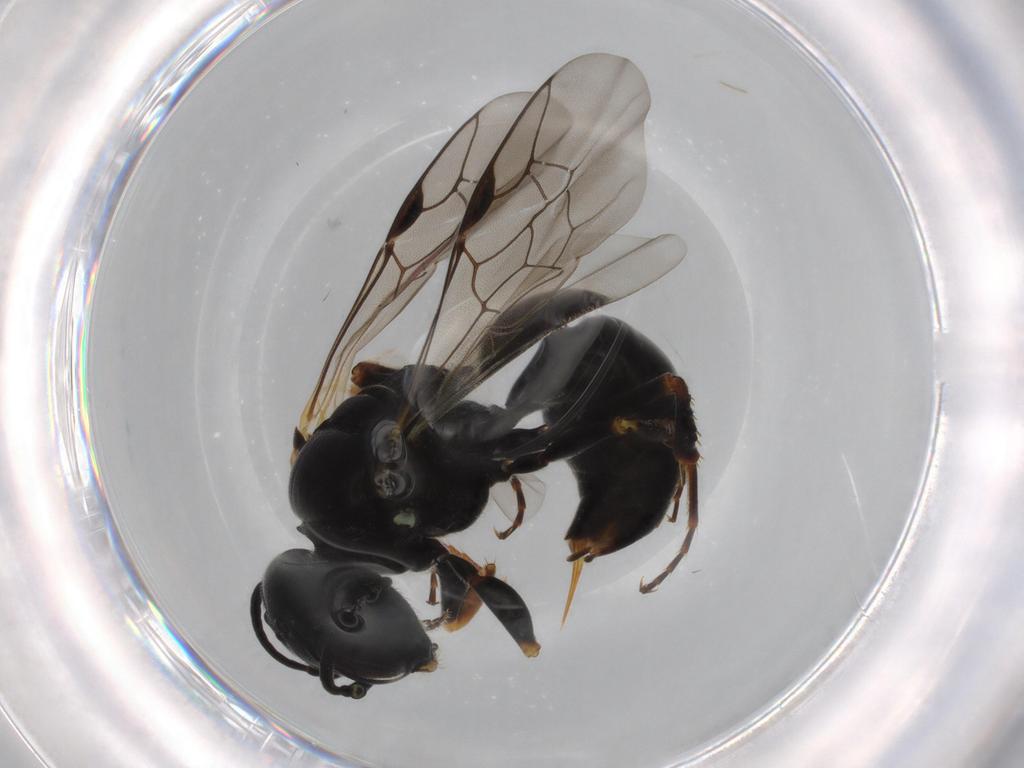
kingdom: Animalia
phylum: Arthropoda
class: Insecta
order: Hymenoptera
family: Crabronidae
